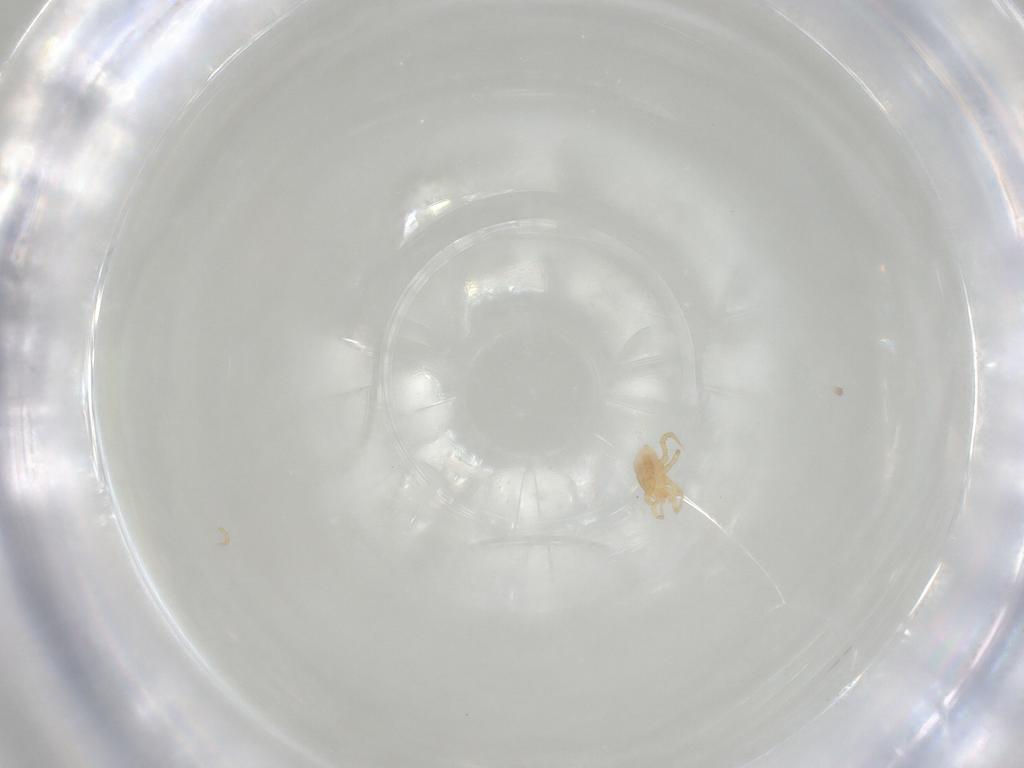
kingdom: Animalia
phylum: Arthropoda
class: Arachnida
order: Mesostigmata
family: Parasitidae
